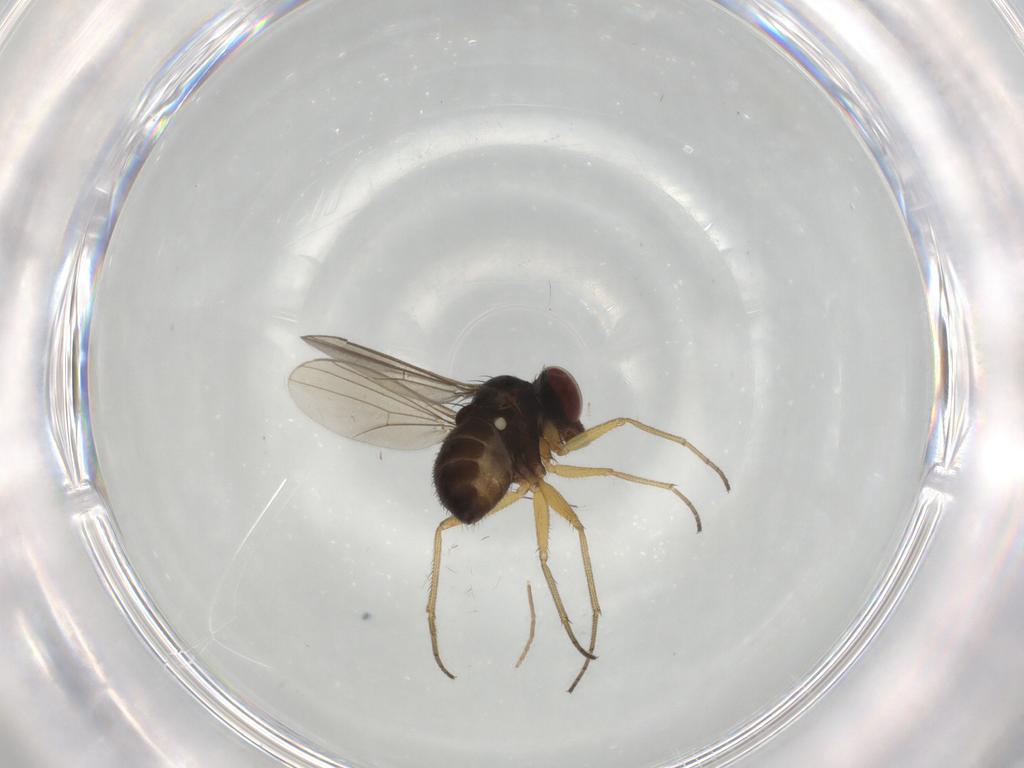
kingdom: Animalia
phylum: Arthropoda
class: Insecta
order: Diptera
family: Dolichopodidae
